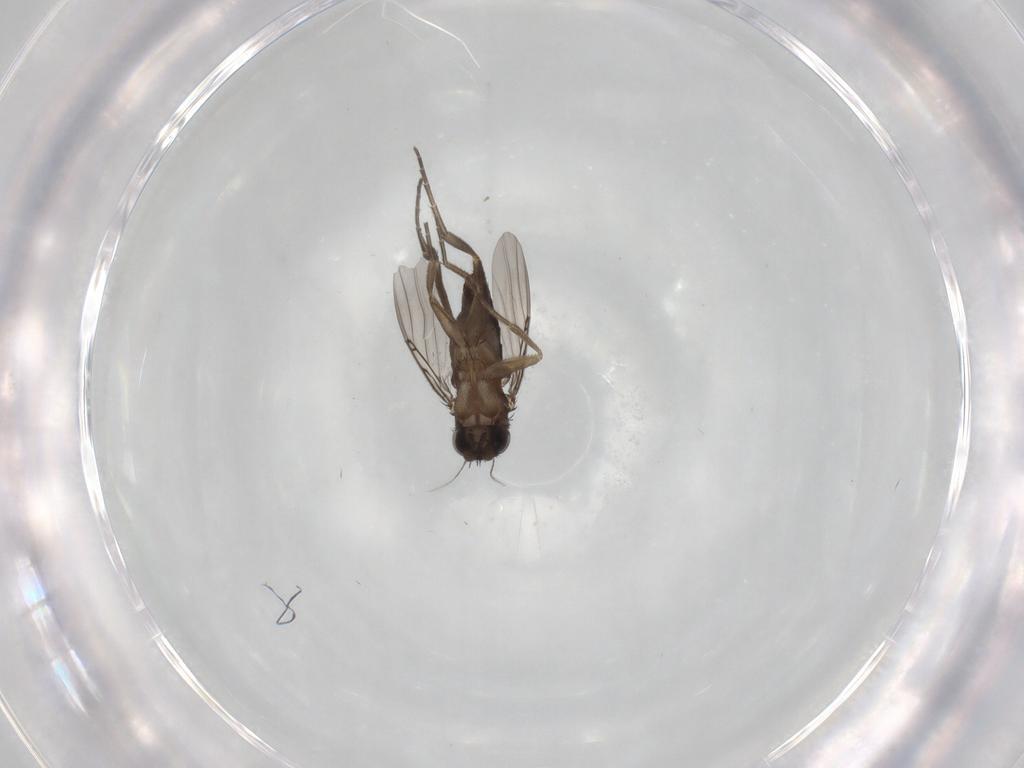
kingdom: Animalia
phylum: Arthropoda
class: Insecta
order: Diptera
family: Phoridae
